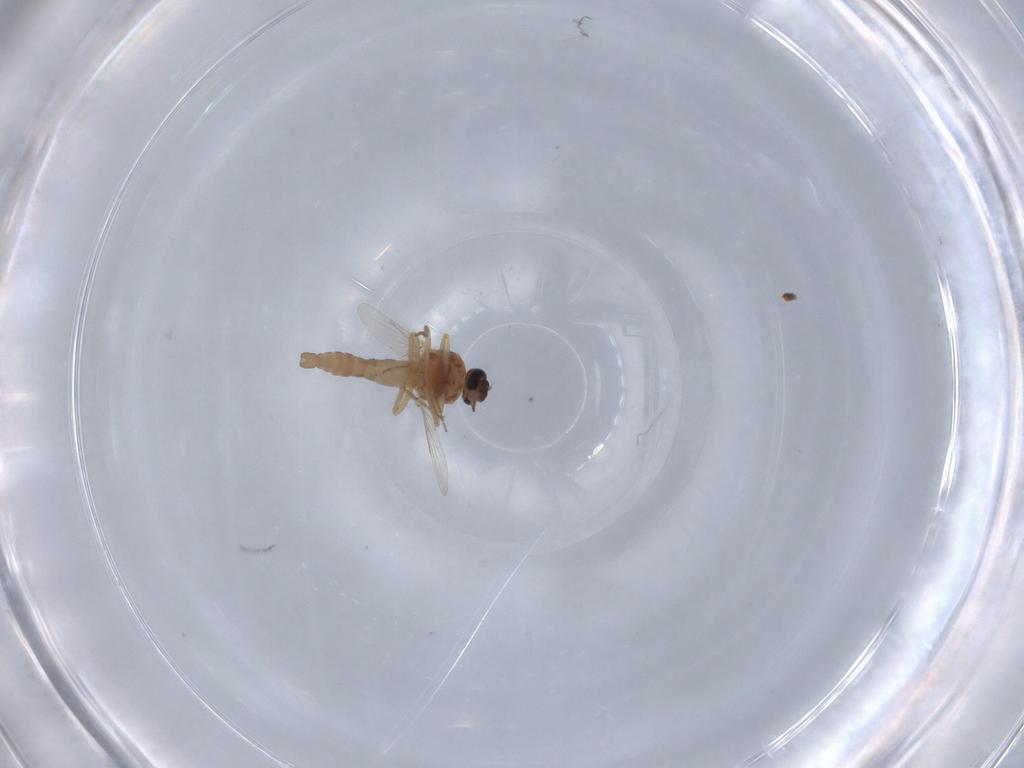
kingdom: Animalia
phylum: Arthropoda
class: Insecta
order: Diptera
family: Ceratopogonidae
